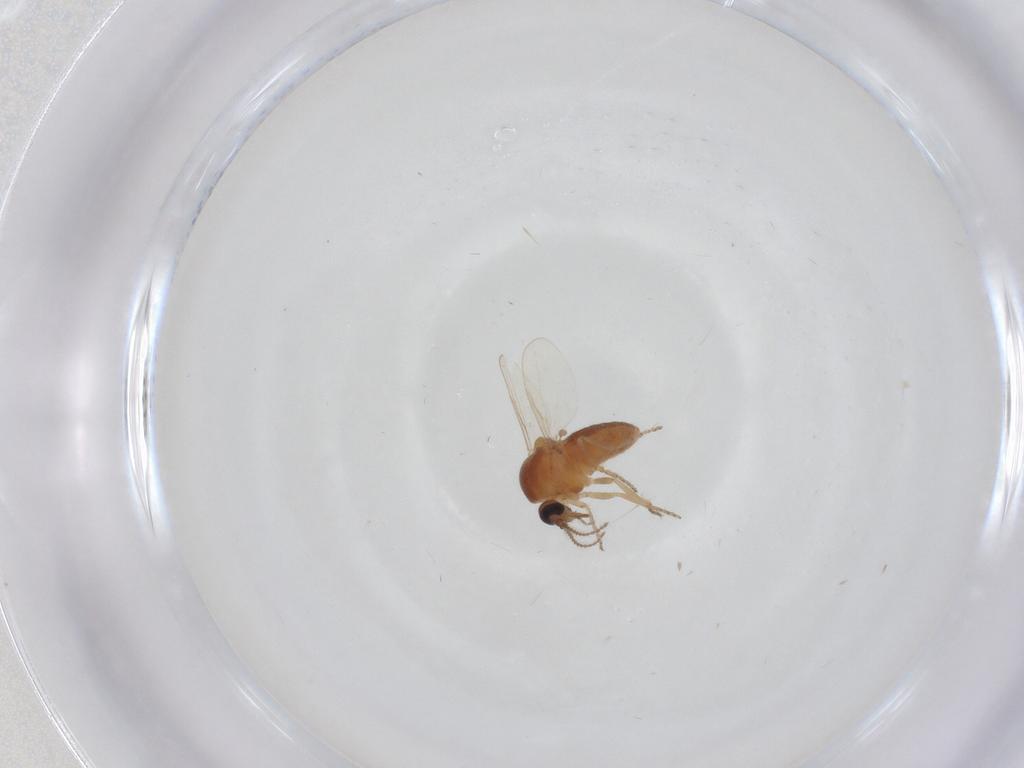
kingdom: Animalia
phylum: Arthropoda
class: Insecta
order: Diptera
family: Ceratopogonidae
